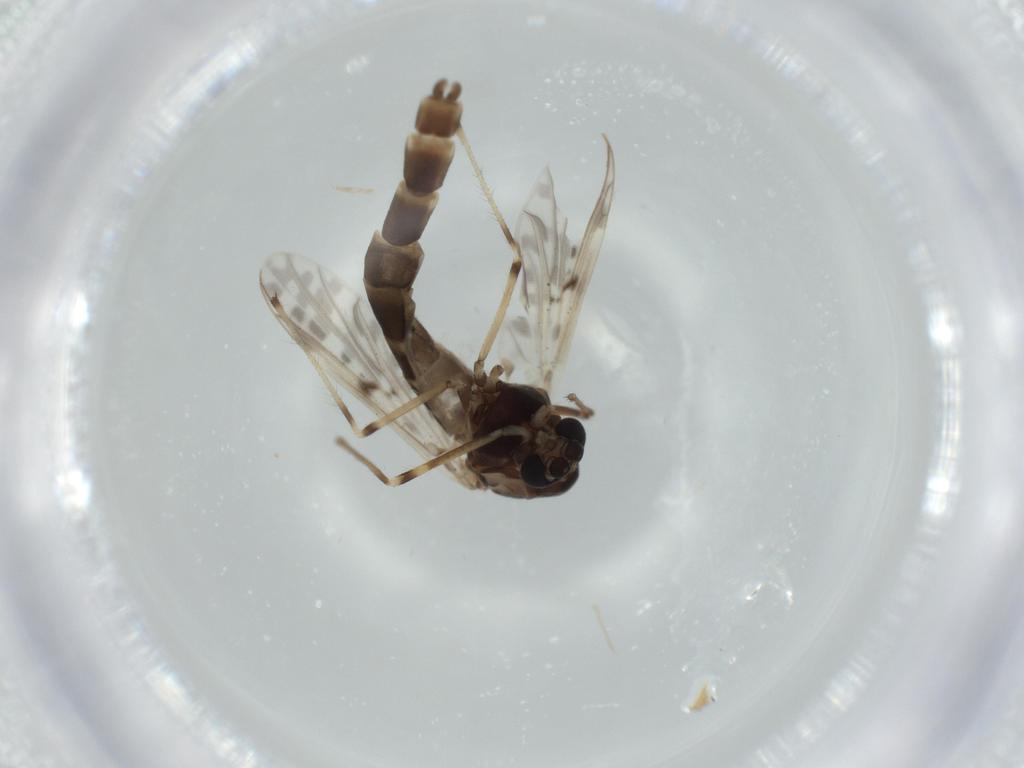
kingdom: Animalia
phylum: Arthropoda
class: Insecta
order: Diptera
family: Chironomidae
